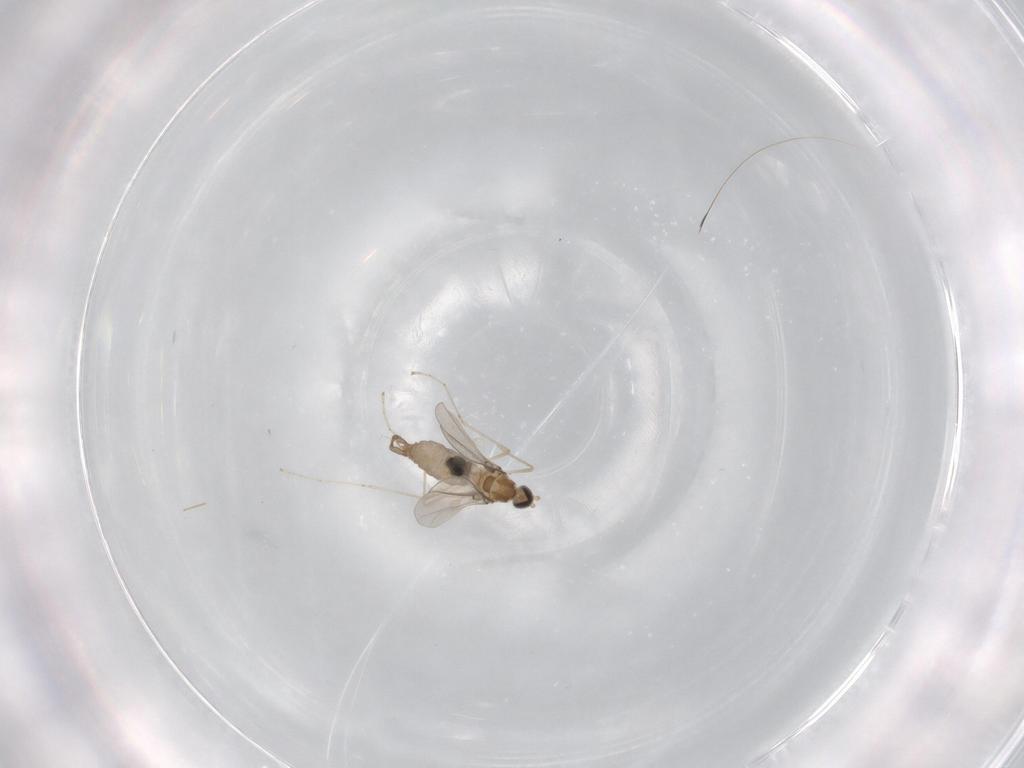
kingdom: Animalia
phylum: Arthropoda
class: Insecta
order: Diptera
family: Cecidomyiidae
